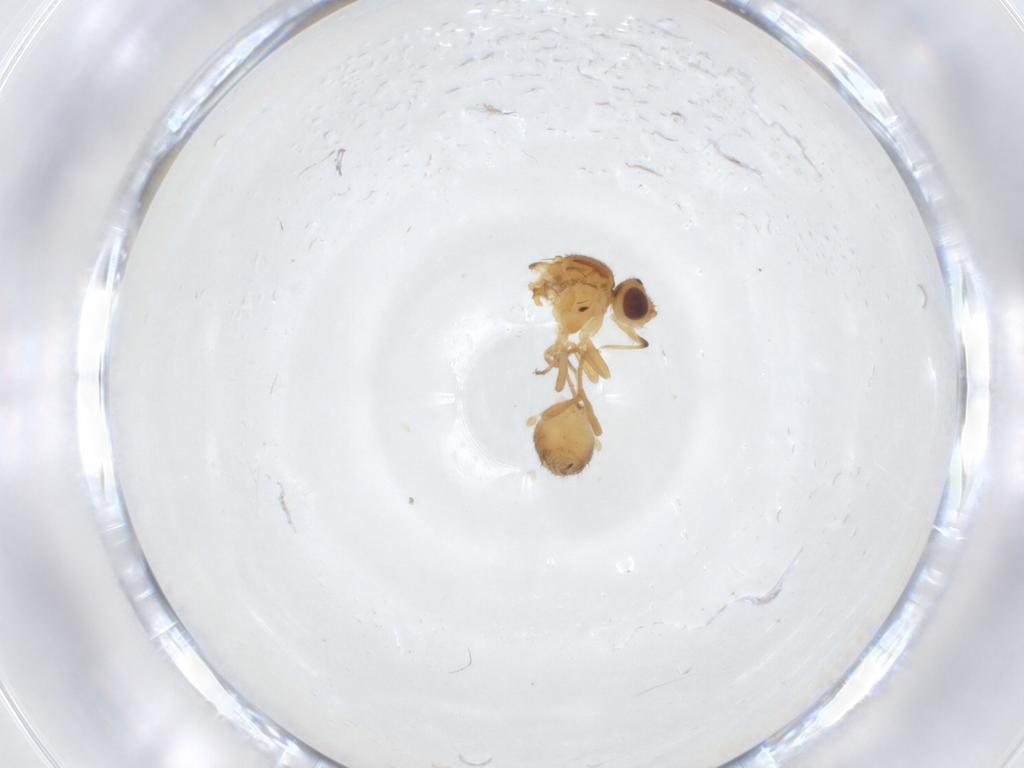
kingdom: Animalia
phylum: Arthropoda
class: Insecta
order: Diptera
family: Chloropidae
